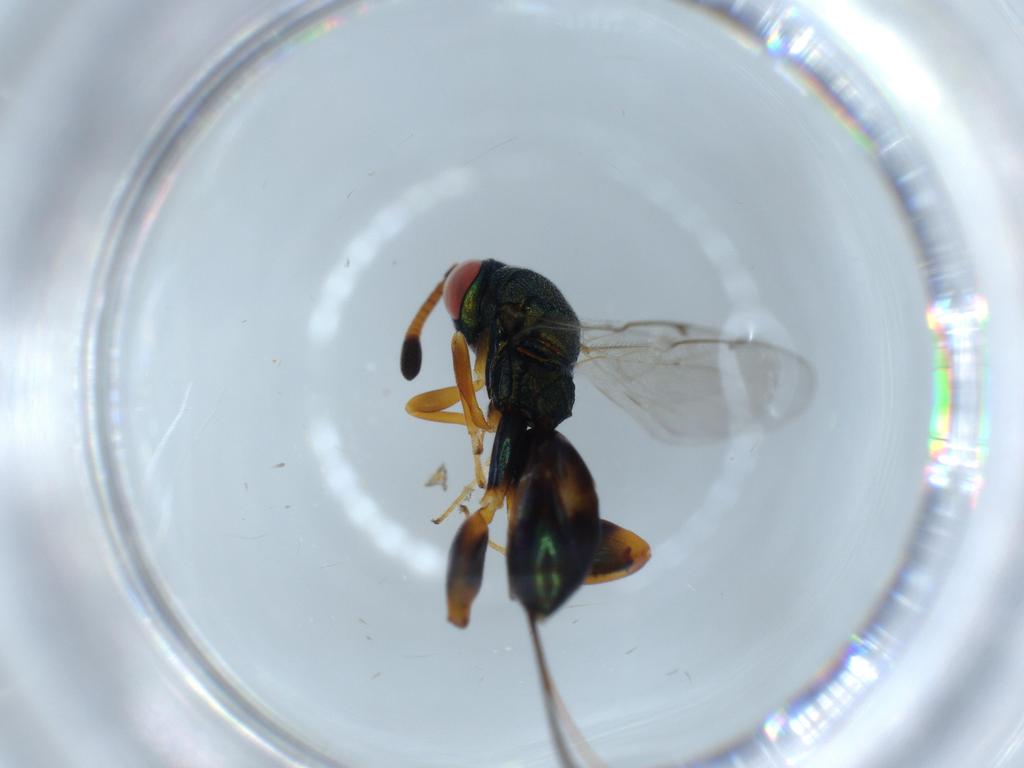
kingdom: Animalia
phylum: Arthropoda
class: Insecta
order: Hymenoptera
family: Torymidae
